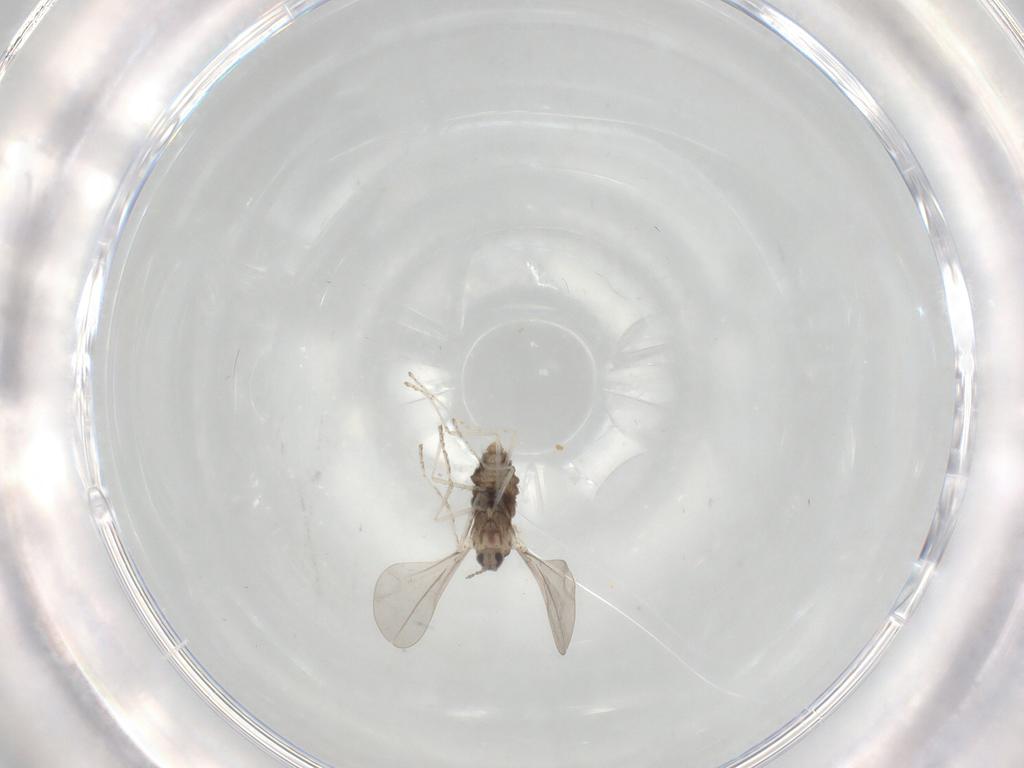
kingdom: Animalia
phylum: Arthropoda
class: Insecta
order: Diptera
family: Cecidomyiidae
